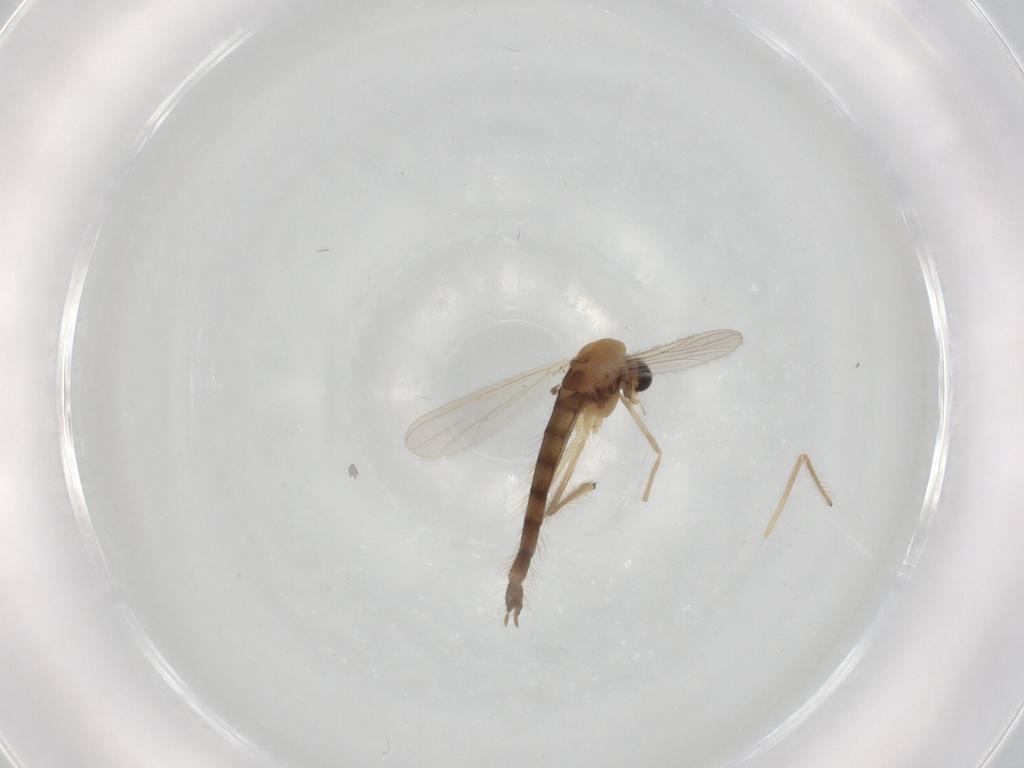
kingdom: Animalia
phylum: Arthropoda
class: Insecta
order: Diptera
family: Chironomidae
